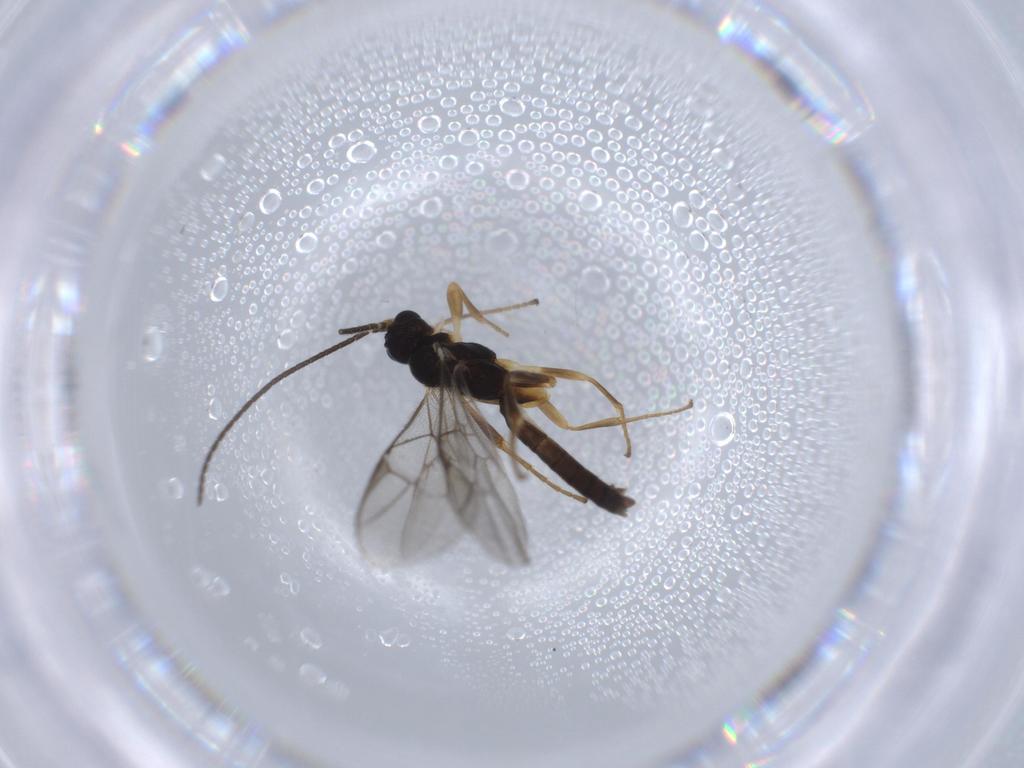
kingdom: Animalia
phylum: Arthropoda
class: Insecta
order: Hymenoptera
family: Ichneumonidae
